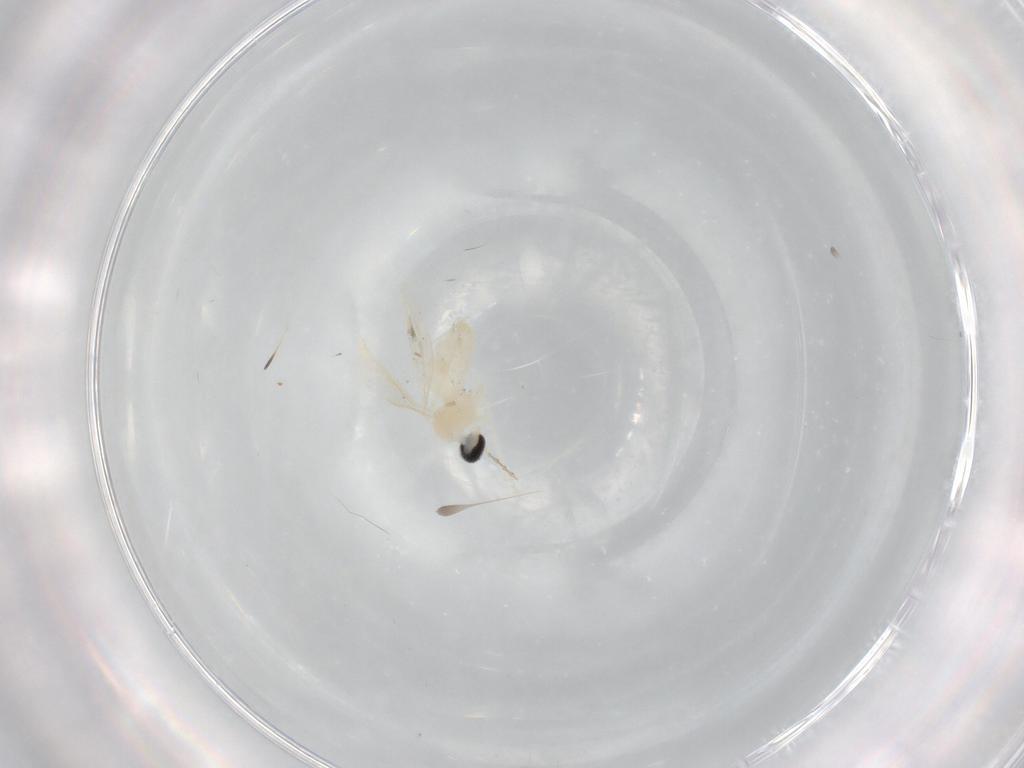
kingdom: Animalia
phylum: Arthropoda
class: Insecta
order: Diptera
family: Cecidomyiidae
